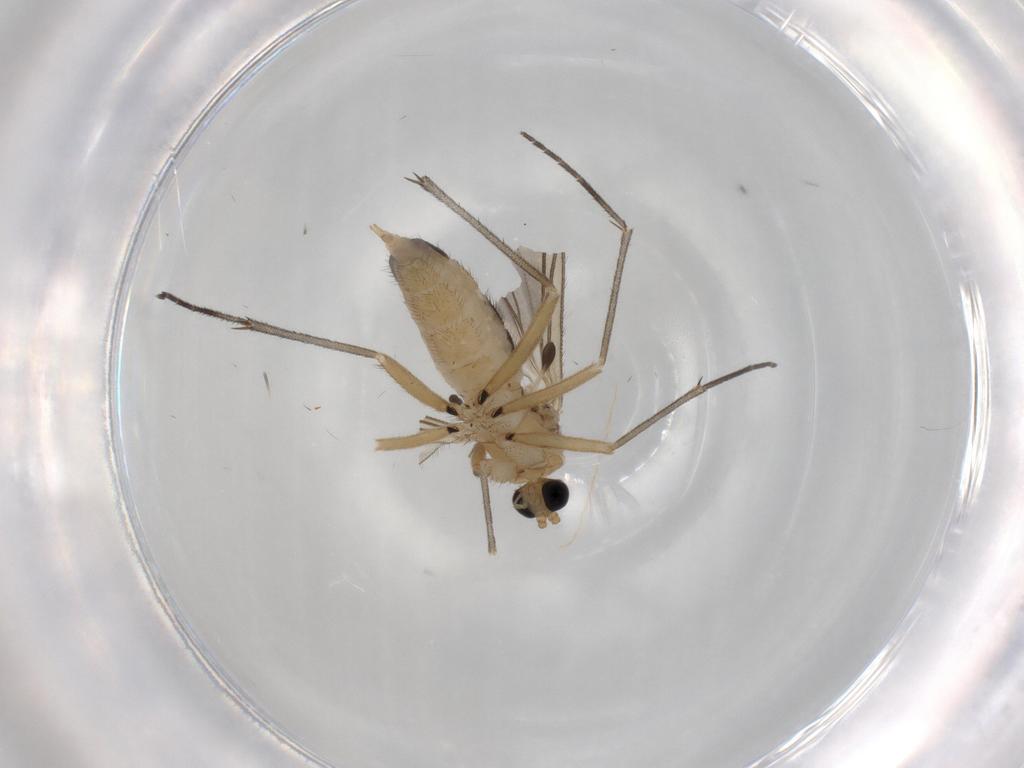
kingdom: Animalia
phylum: Arthropoda
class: Insecta
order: Diptera
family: Sciaridae
